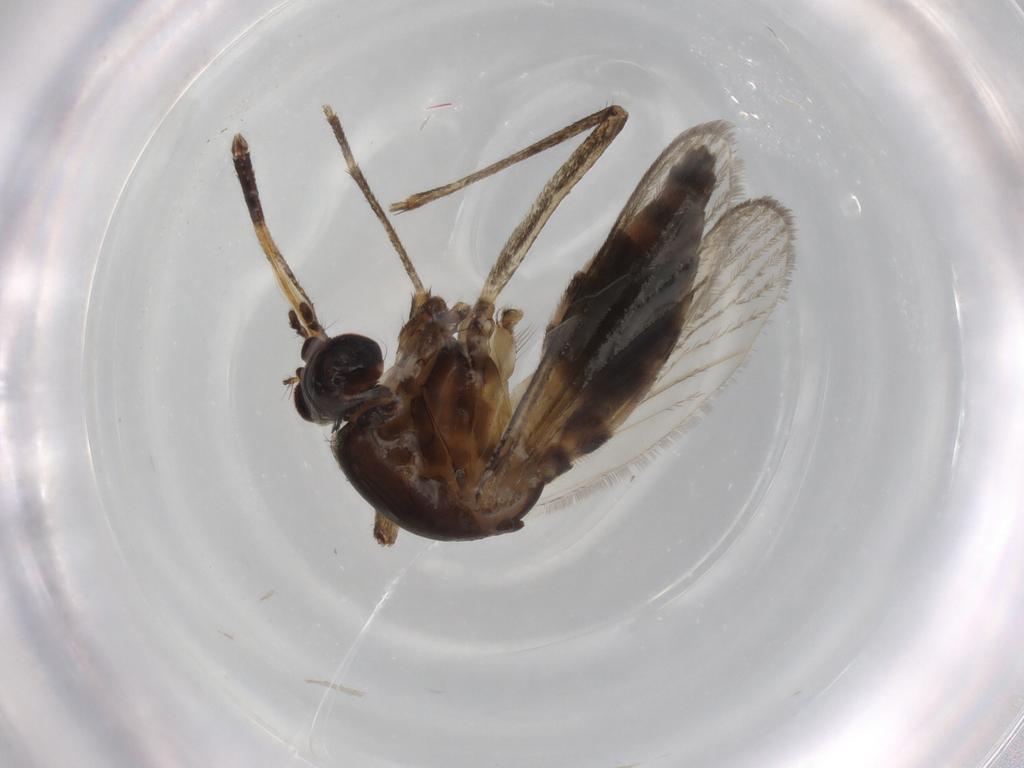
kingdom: Animalia
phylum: Arthropoda
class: Insecta
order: Diptera
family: Culicidae
